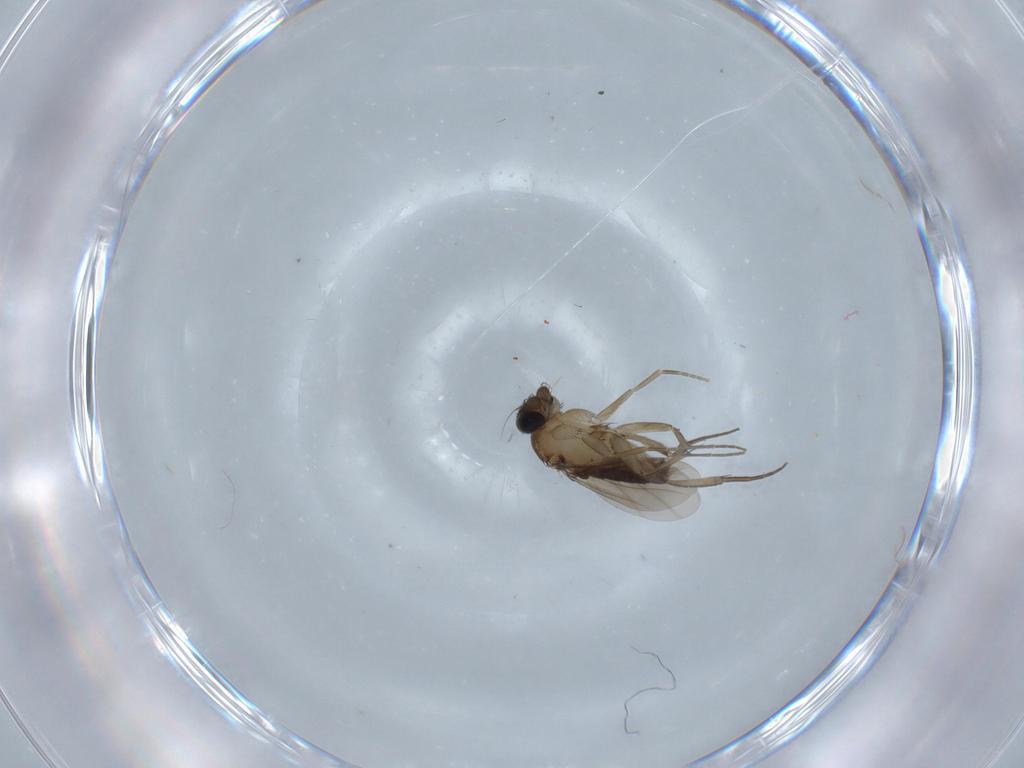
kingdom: Animalia
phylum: Arthropoda
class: Insecta
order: Diptera
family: Phoridae
